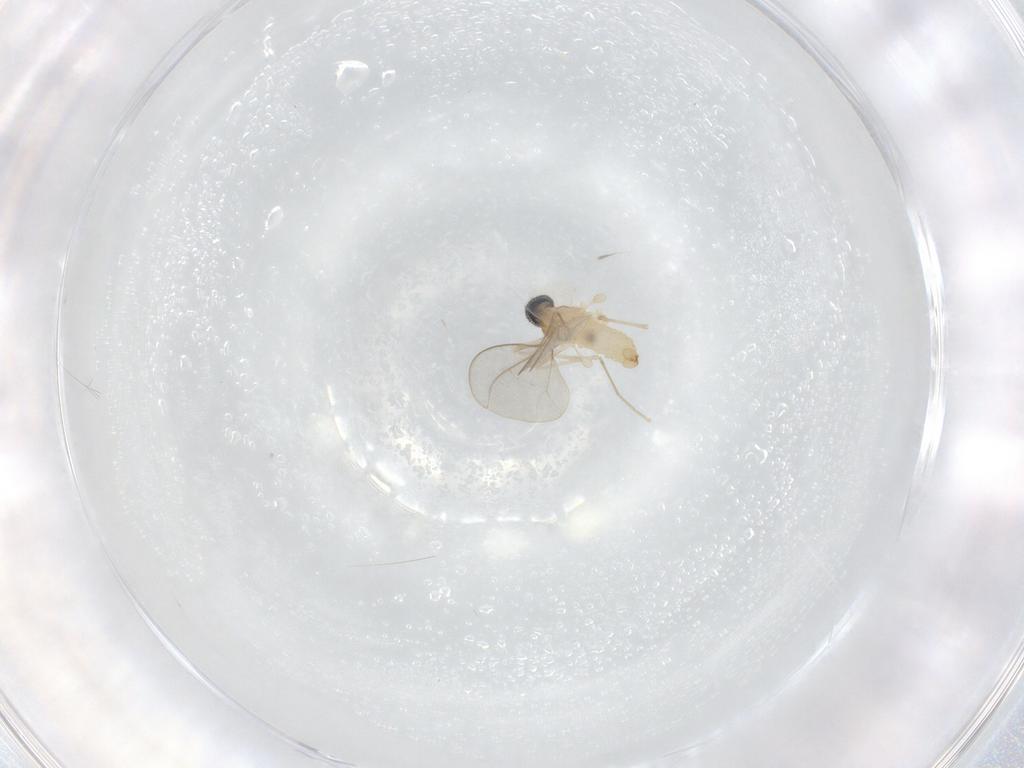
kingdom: Animalia
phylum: Arthropoda
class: Insecta
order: Diptera
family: Cecidomyiidae
